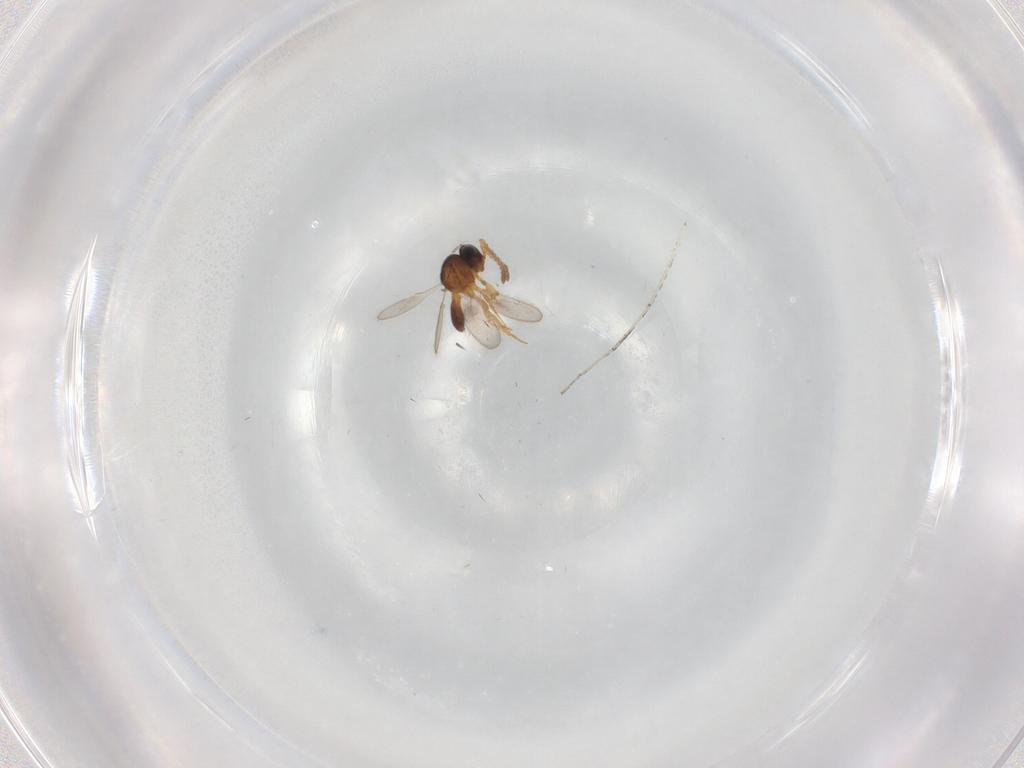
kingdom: Animalia
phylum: Arthropoda
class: Insecta
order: Hymenoptera
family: Scelionidae
